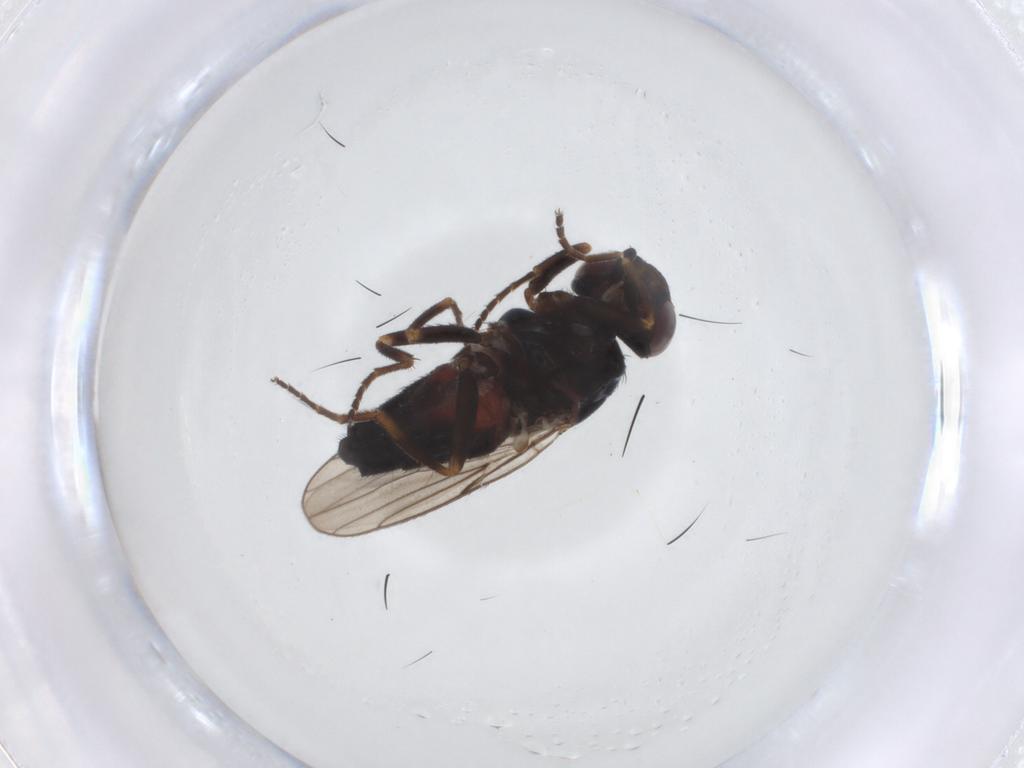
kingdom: Animalia
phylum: Arthropoda
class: Insecta
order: Diptera
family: Chloropidae
